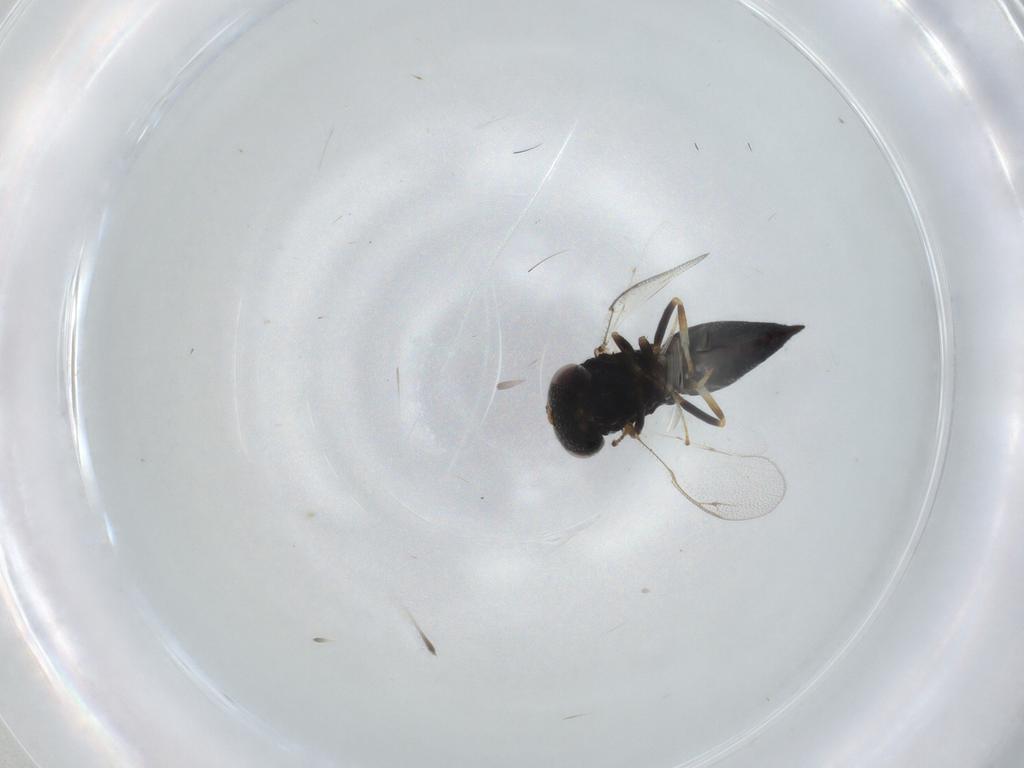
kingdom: Animalia
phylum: Arthropoda
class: Insecta
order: Hymenoptera
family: Pteromalidae
